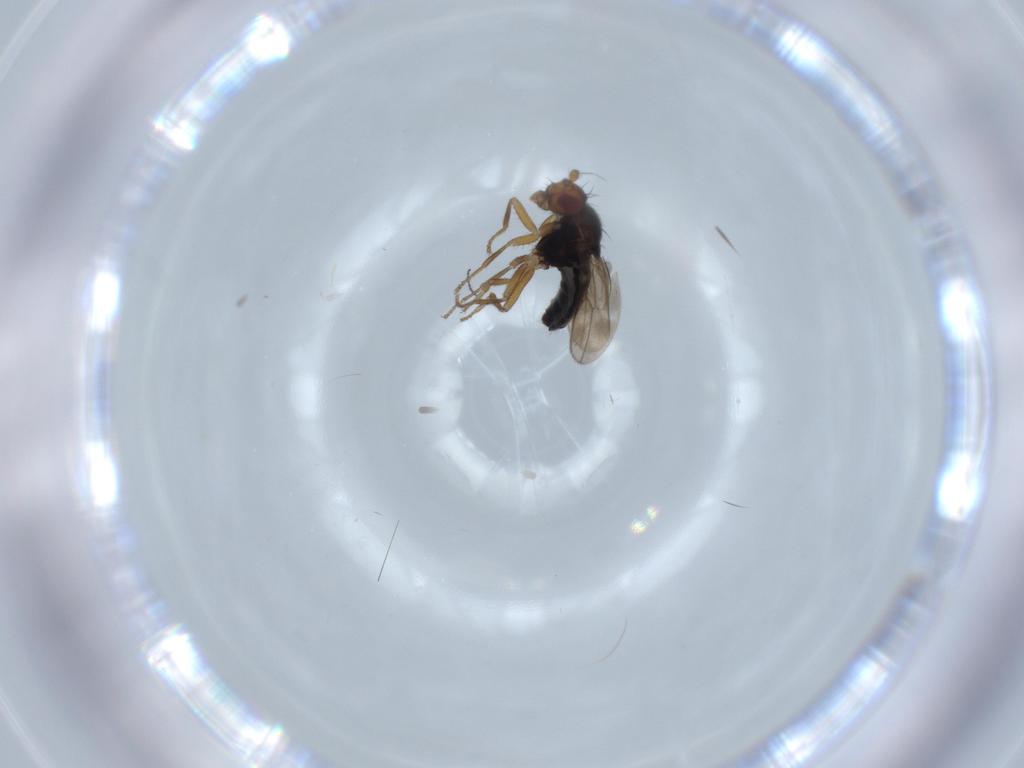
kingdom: Animalia
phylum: Arthropoda
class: Insecta
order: Diptera
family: Sphaeroceridae
